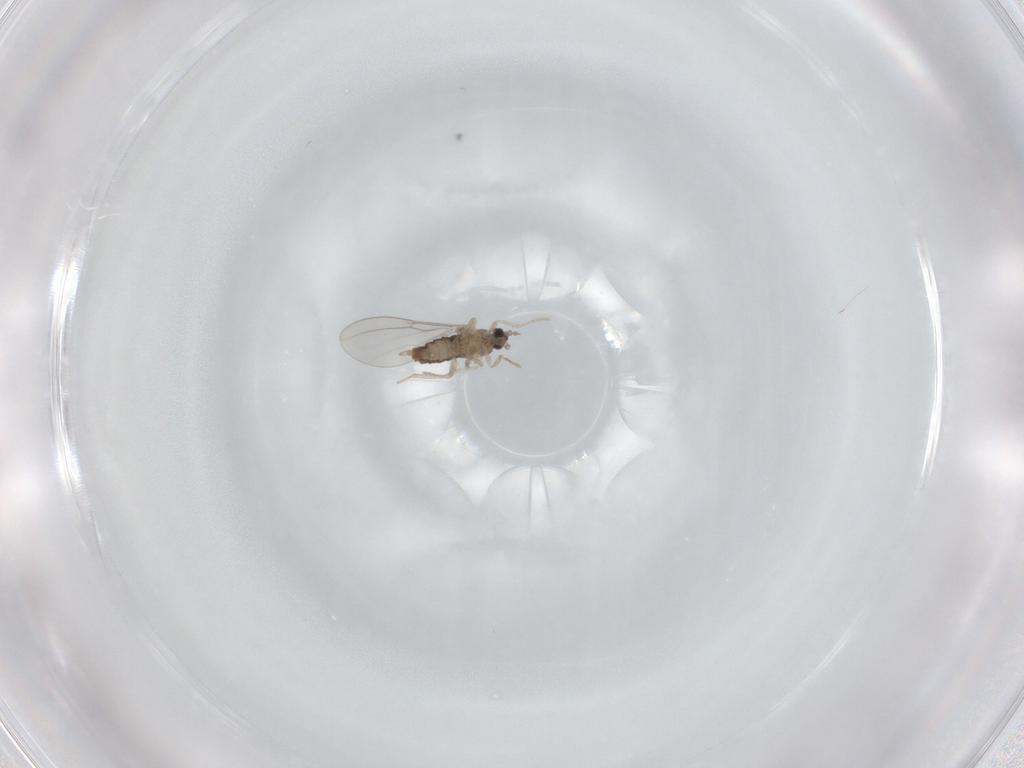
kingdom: Animalia
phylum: Arthropoda
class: Insecta
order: Diptera
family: Cecidomyiidae
